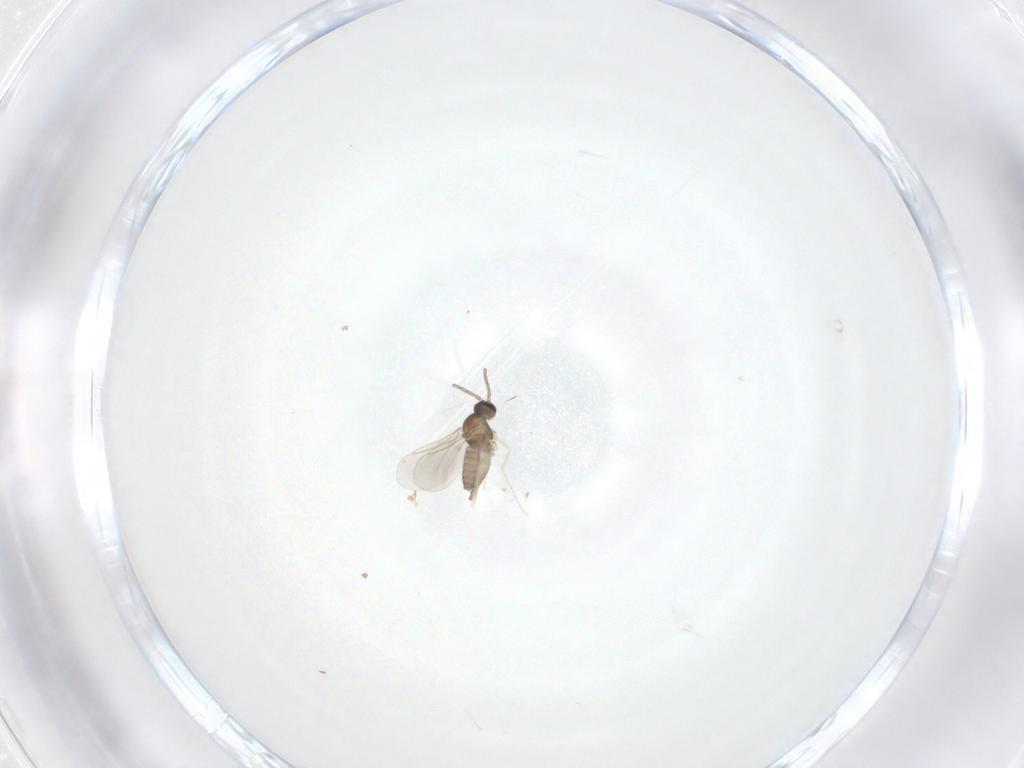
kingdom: Animalia
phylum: Arthropoda
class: Insecta
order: Diptera
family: Cecidomyiidae
